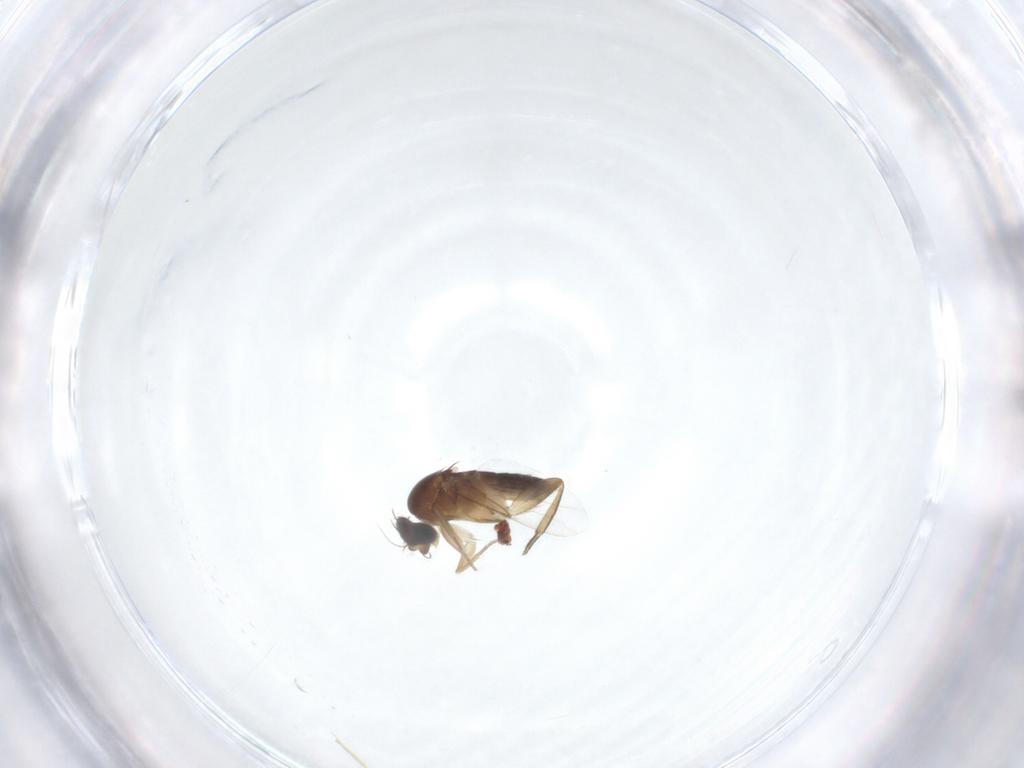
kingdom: Animalia
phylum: Arthropoda
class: Insecta
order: Diptera
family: Phoridae
